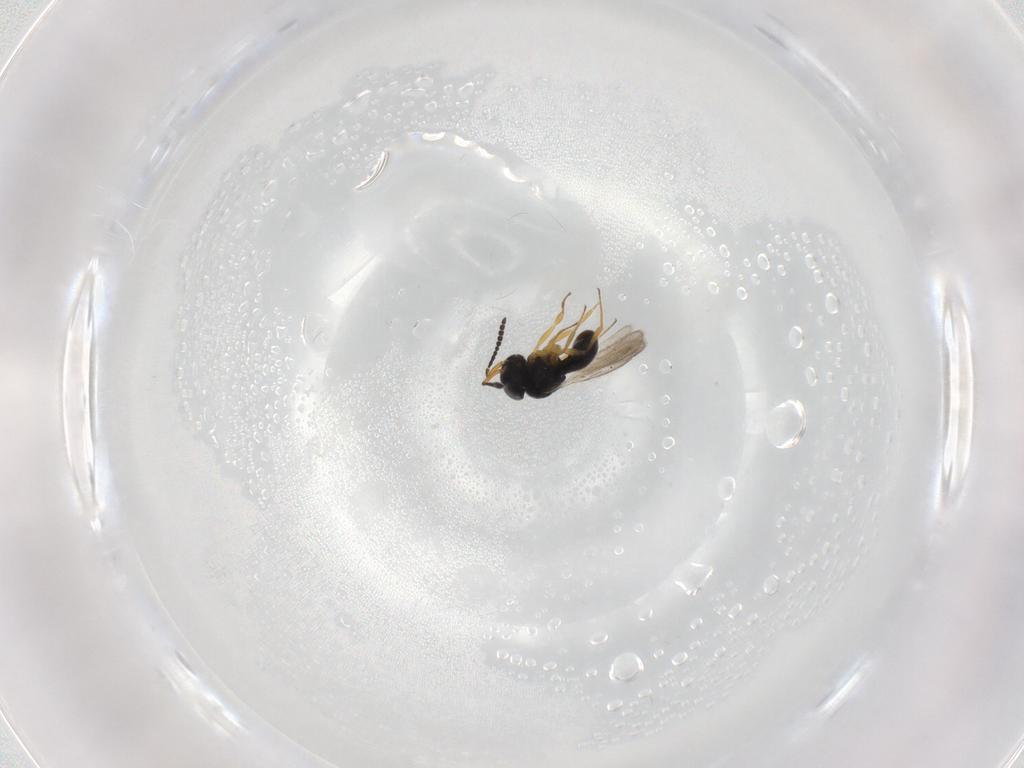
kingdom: Animalia
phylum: Arthropoda
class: Insecta
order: Hymenoptera
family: Scelionidae
